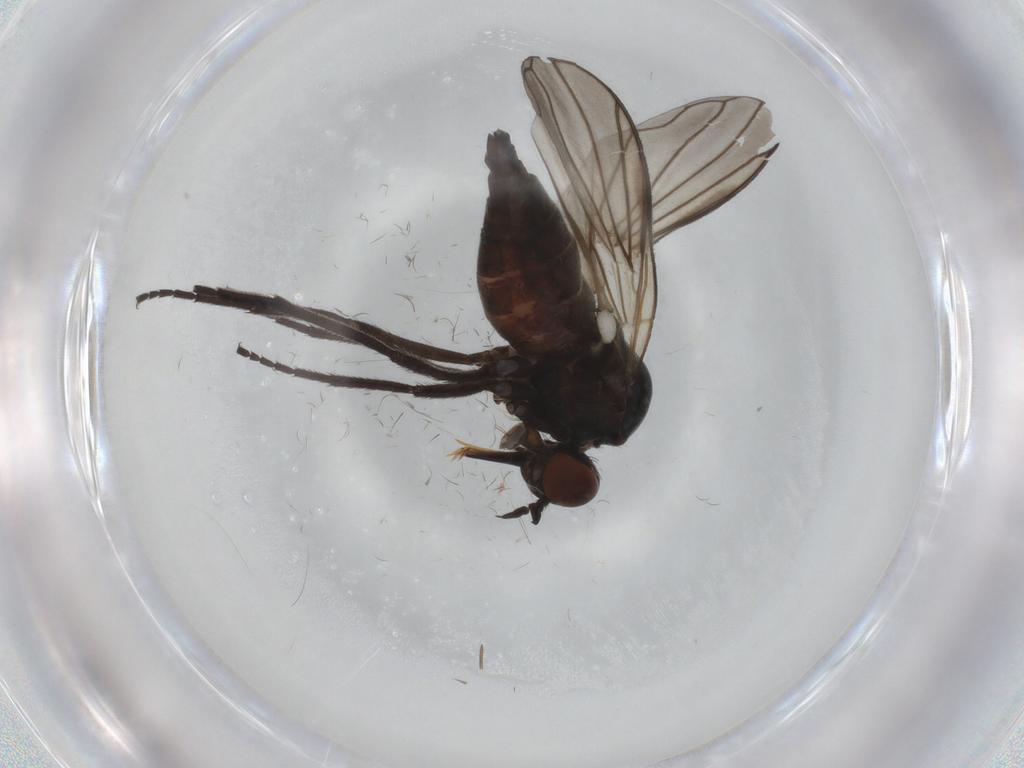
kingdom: Animalia
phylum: Arthropoda
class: Insecta
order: Diptera
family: Empididae
